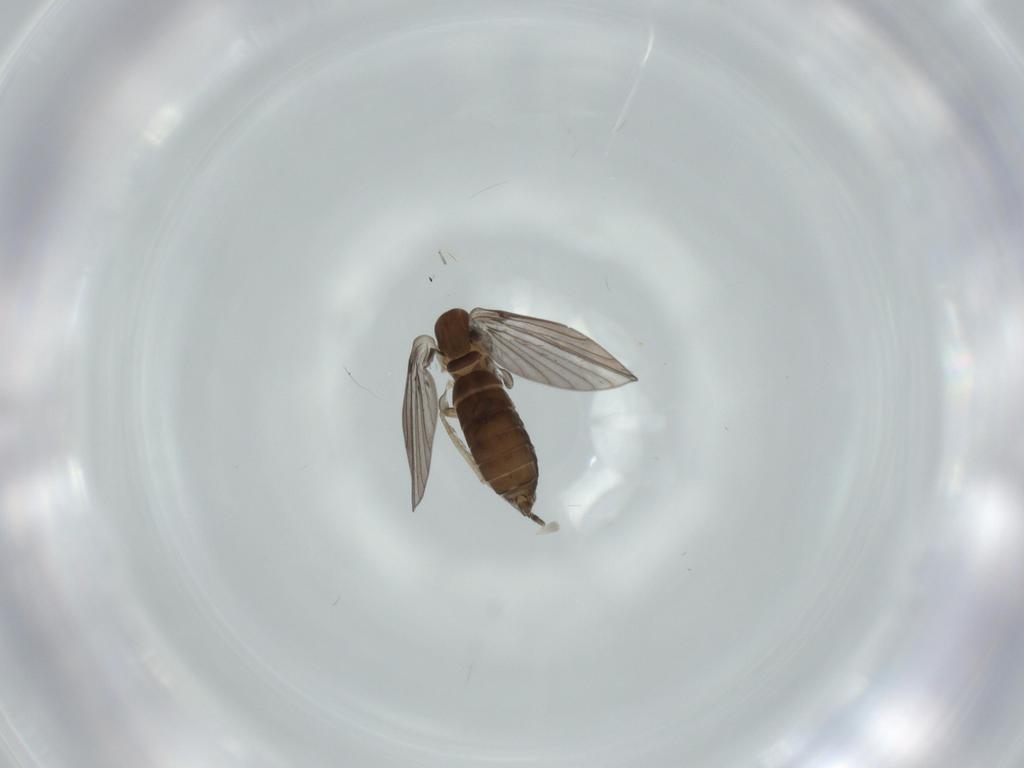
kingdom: Animalia
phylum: Arthropoda
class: Insecta
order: Diptera
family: Psychodidae
